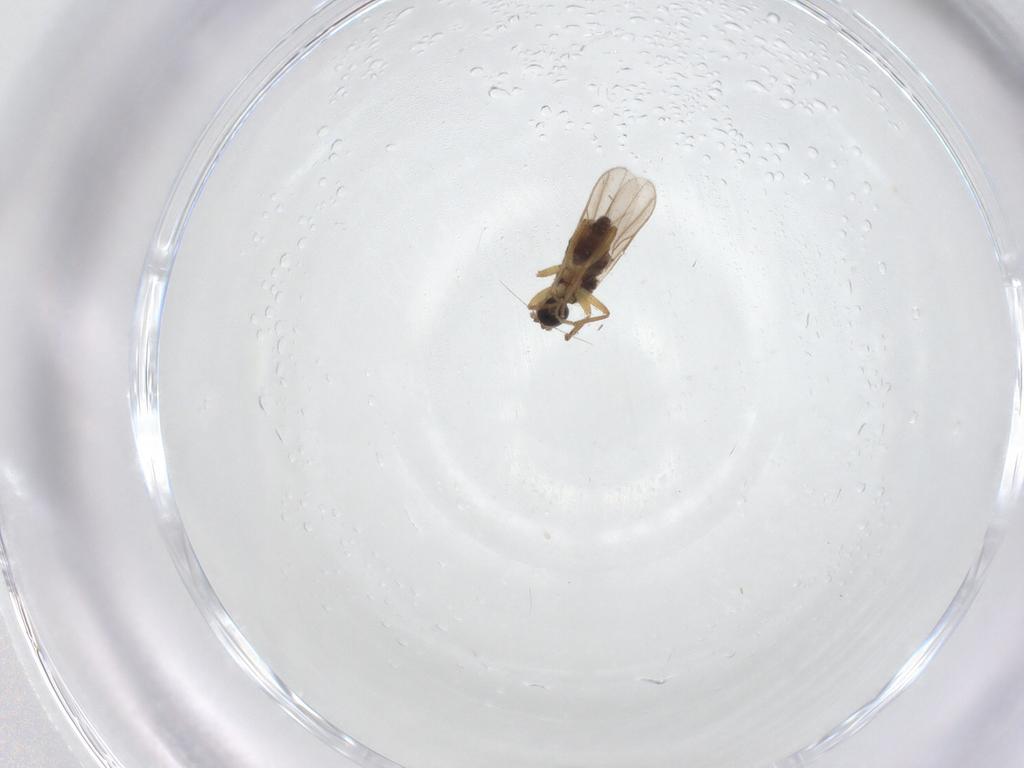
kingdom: Animalia
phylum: Arthropoda
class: Insecta
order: Diptera
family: Hybotidae
